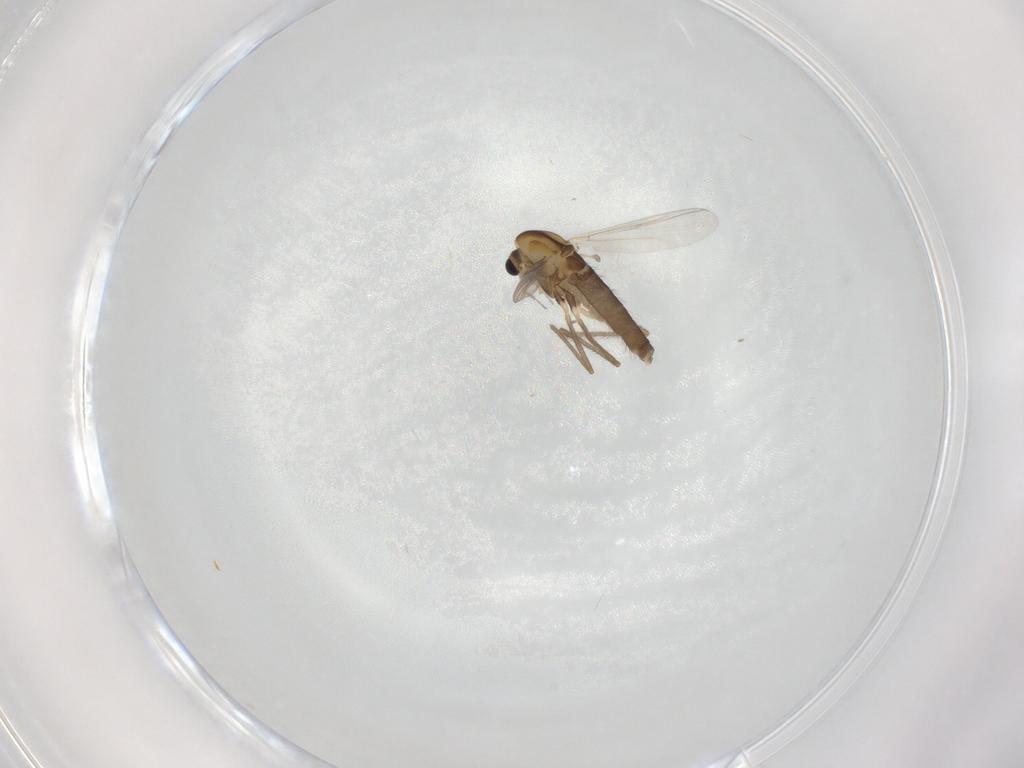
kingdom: Animalia
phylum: Arthropoda
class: Insecta
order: Diptera
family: Chironomidae
